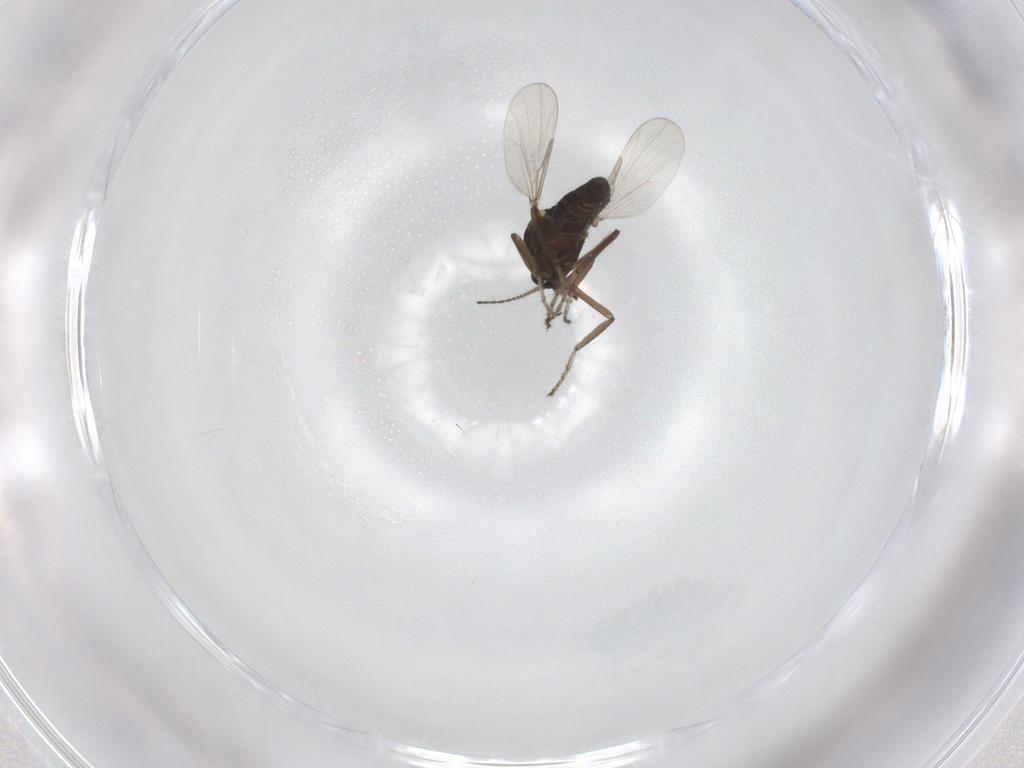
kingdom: Animalia
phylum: Arthropoda
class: Insecta
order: Diptera
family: Ceratopogonidae
